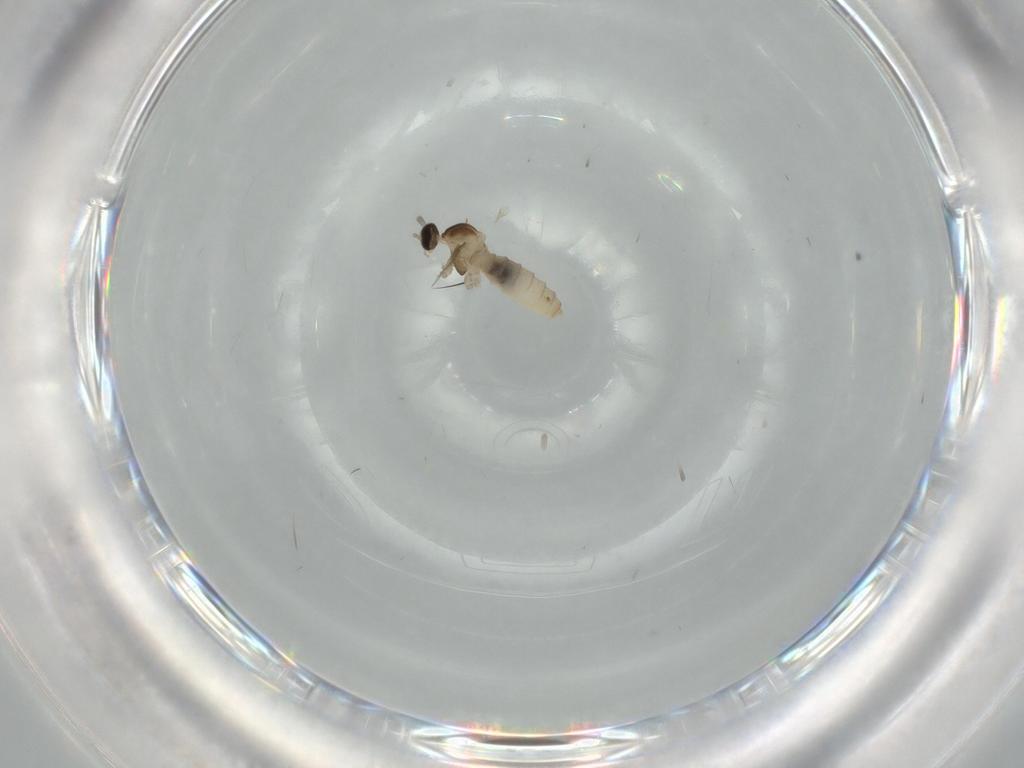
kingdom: Animalia
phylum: Arthropoda
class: Insecta
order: Diptera
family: Cecidomyiidae
